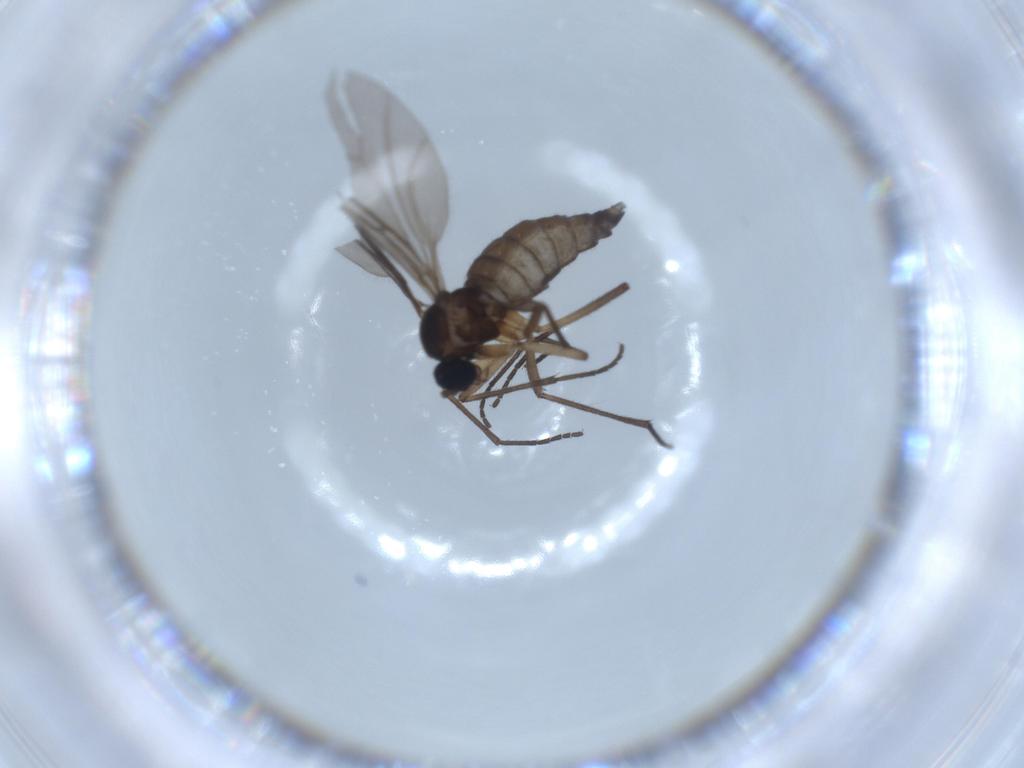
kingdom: Animalia
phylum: Arthropoda
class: Insecta
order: Diptera
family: Sciaridae
